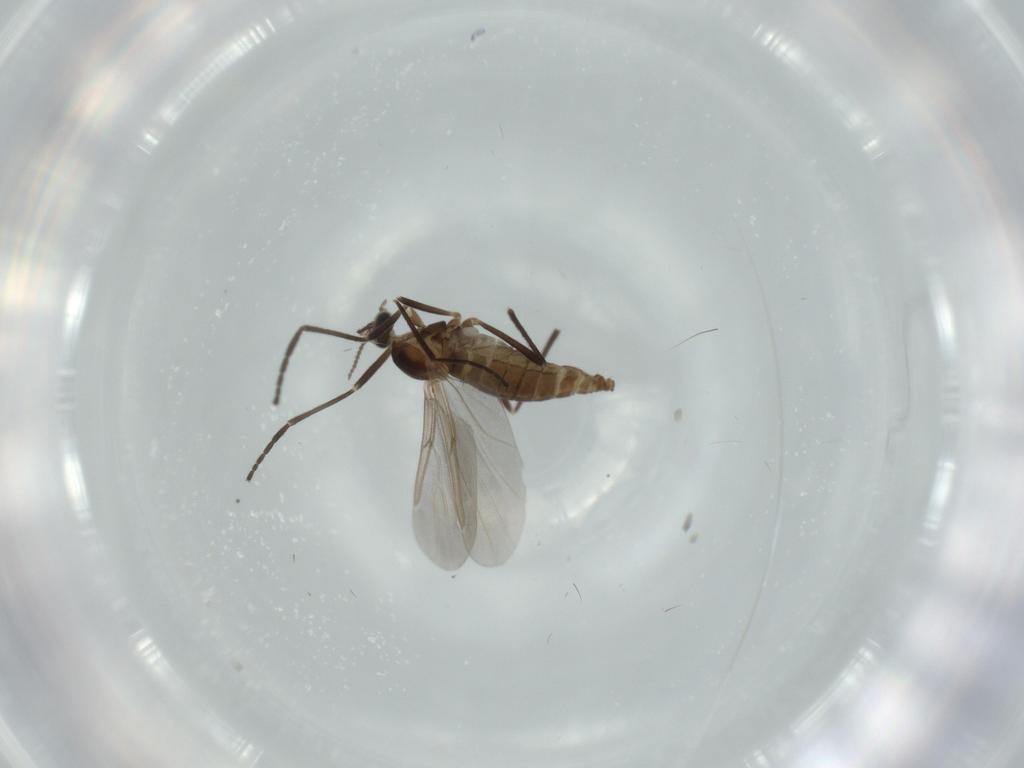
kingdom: Animalia
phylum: Arthropoda
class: Insecta
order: Diptera
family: Cecidomyiidae
